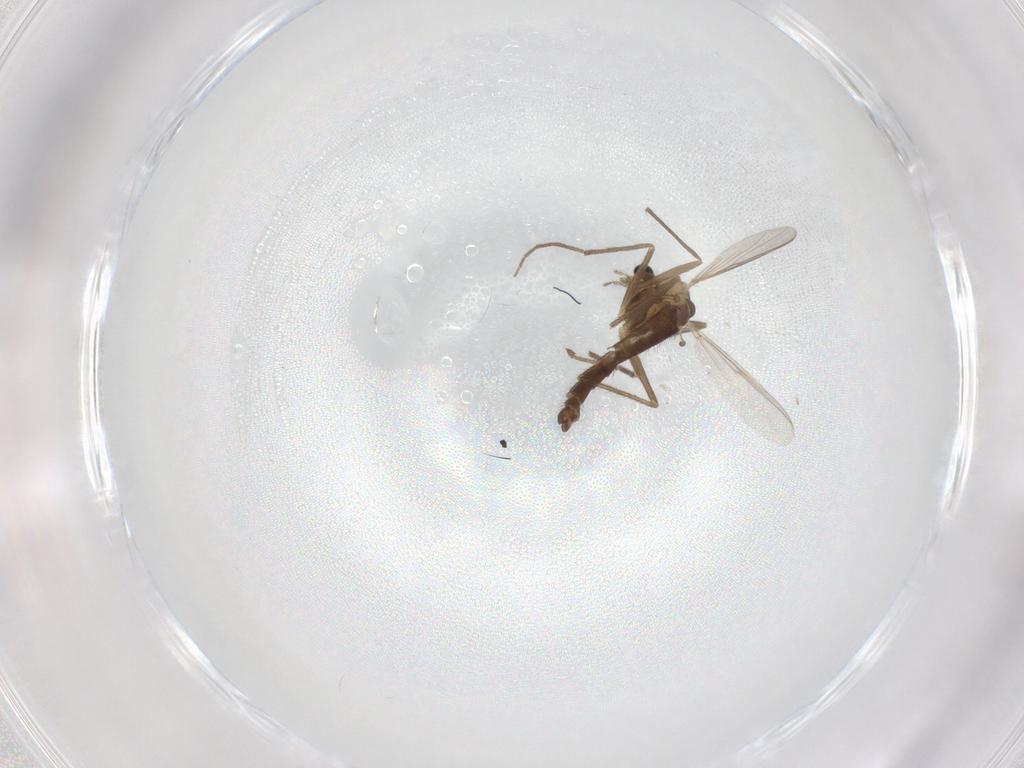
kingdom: Animalia
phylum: Arthropoda
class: Insecta
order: Diptera
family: Chironomidae
